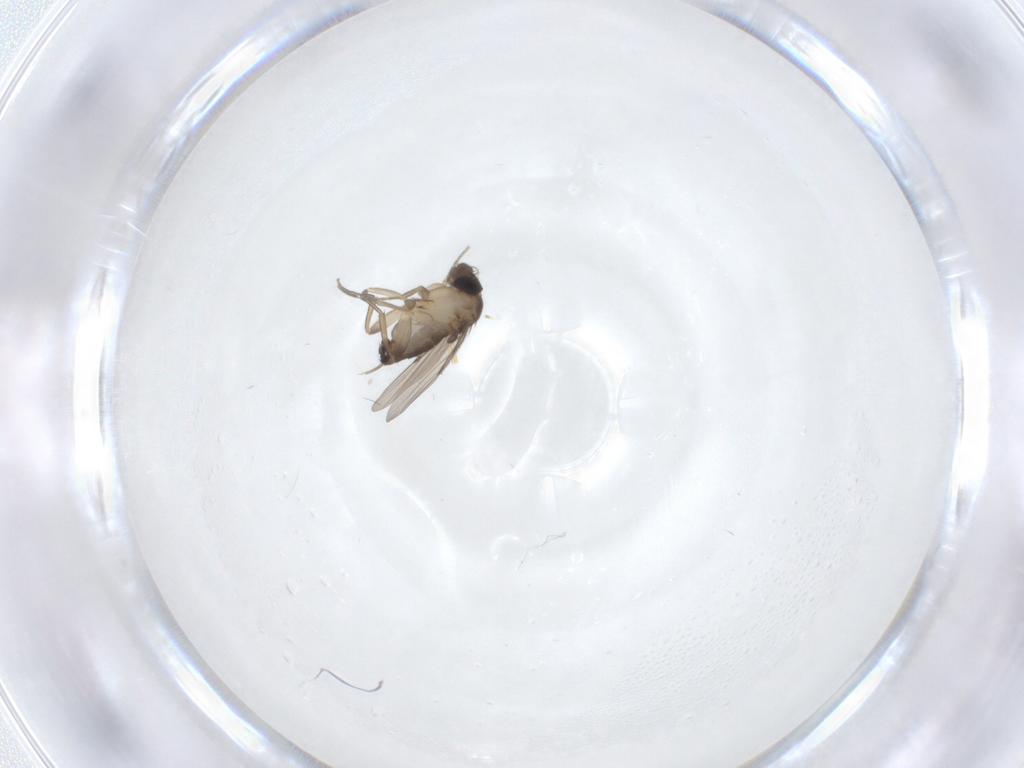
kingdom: Animalia
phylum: Arthropoda
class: Insecta
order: Diptera
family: Phoridae
